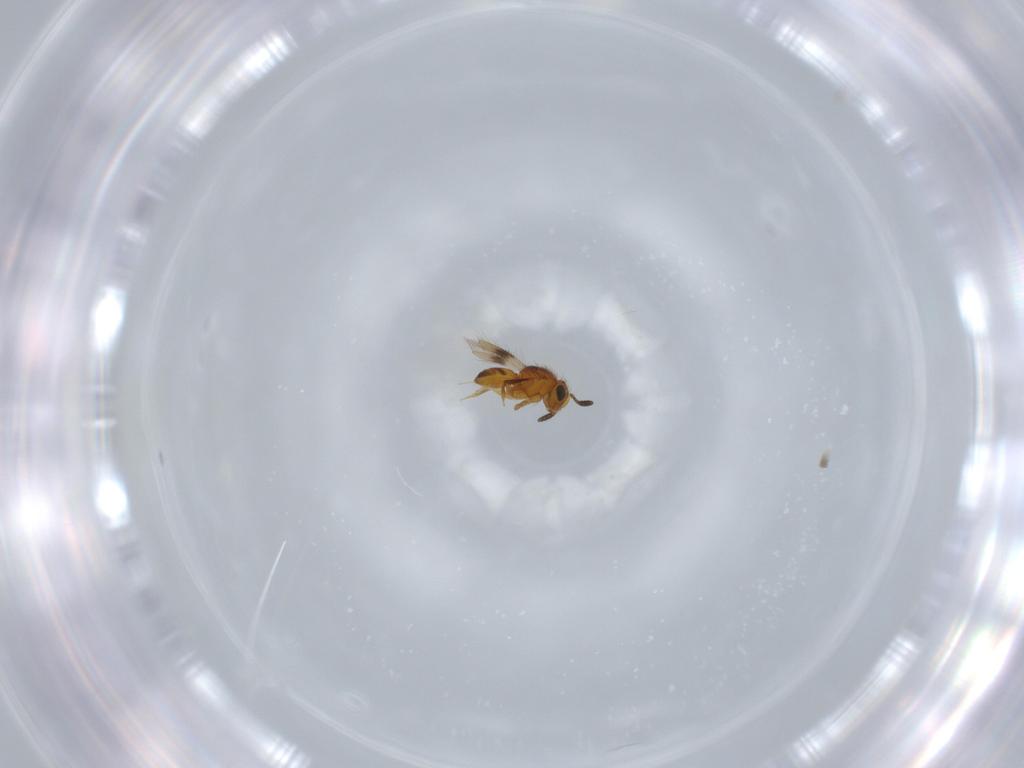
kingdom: Animalia
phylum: Arthropoda
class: Insecta
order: Hymenoptera
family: Scelionidae
